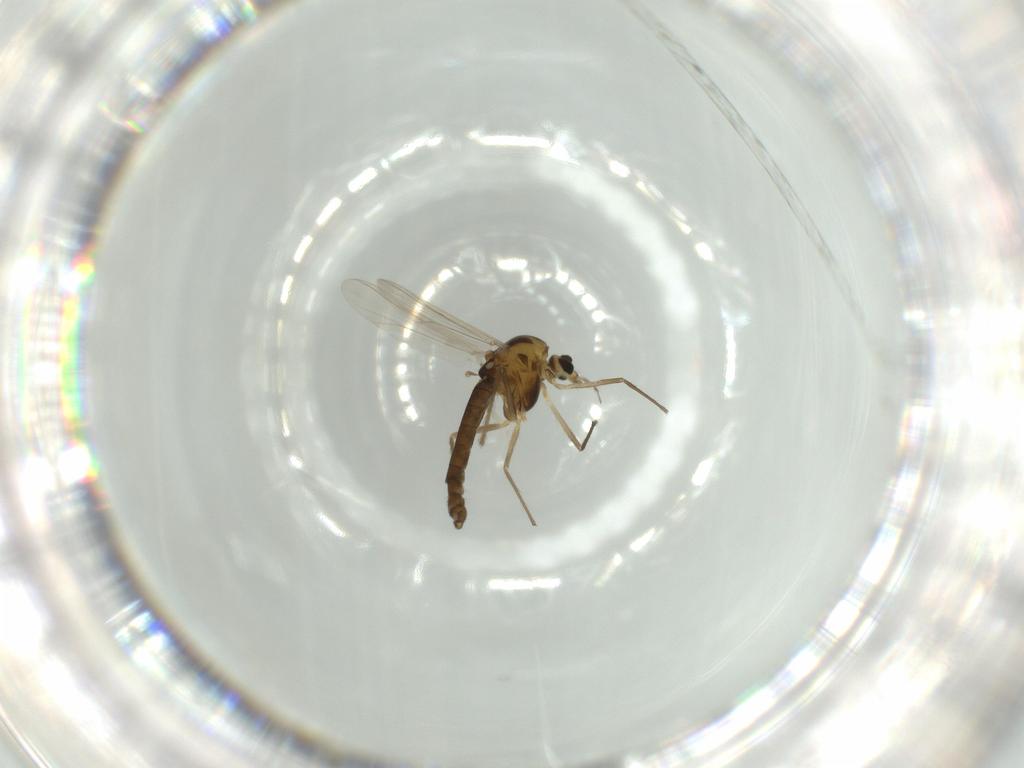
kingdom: Animalia
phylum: Arthropoda
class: Insecta
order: Diptera
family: Chironomidae
